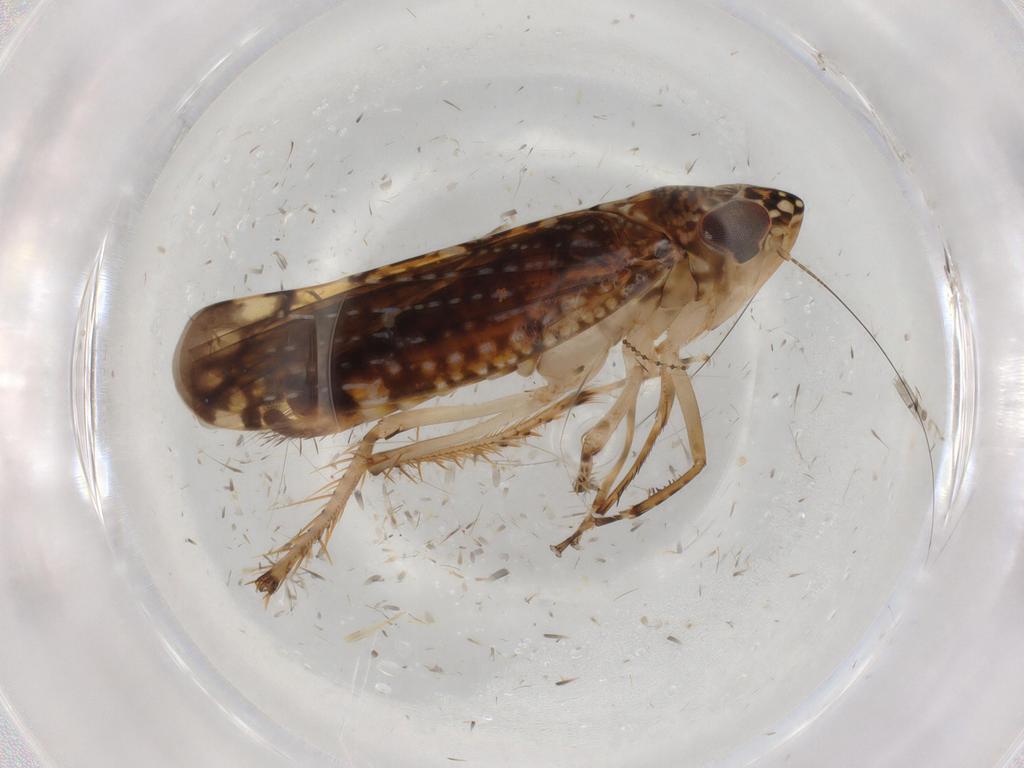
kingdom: Animalia
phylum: Arthropoda
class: Insecta
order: Hemiptera
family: Cicadellidae
